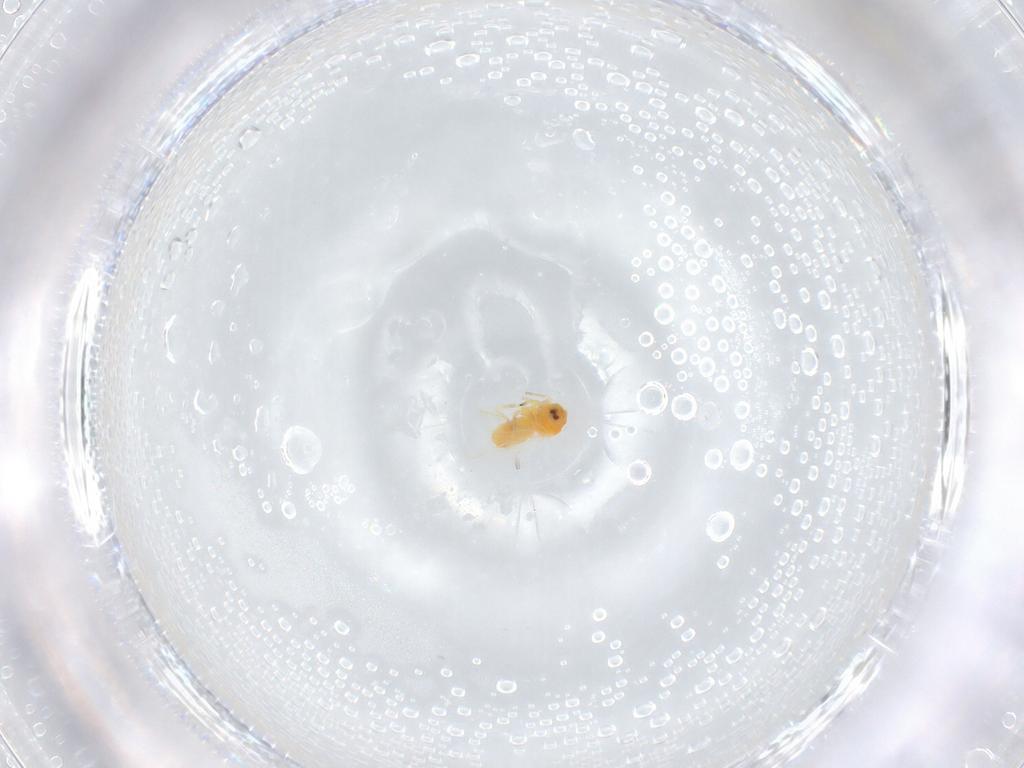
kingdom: Animalia
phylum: Arthropoda
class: Insecta
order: Hemiptera
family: Aleyrodidae
